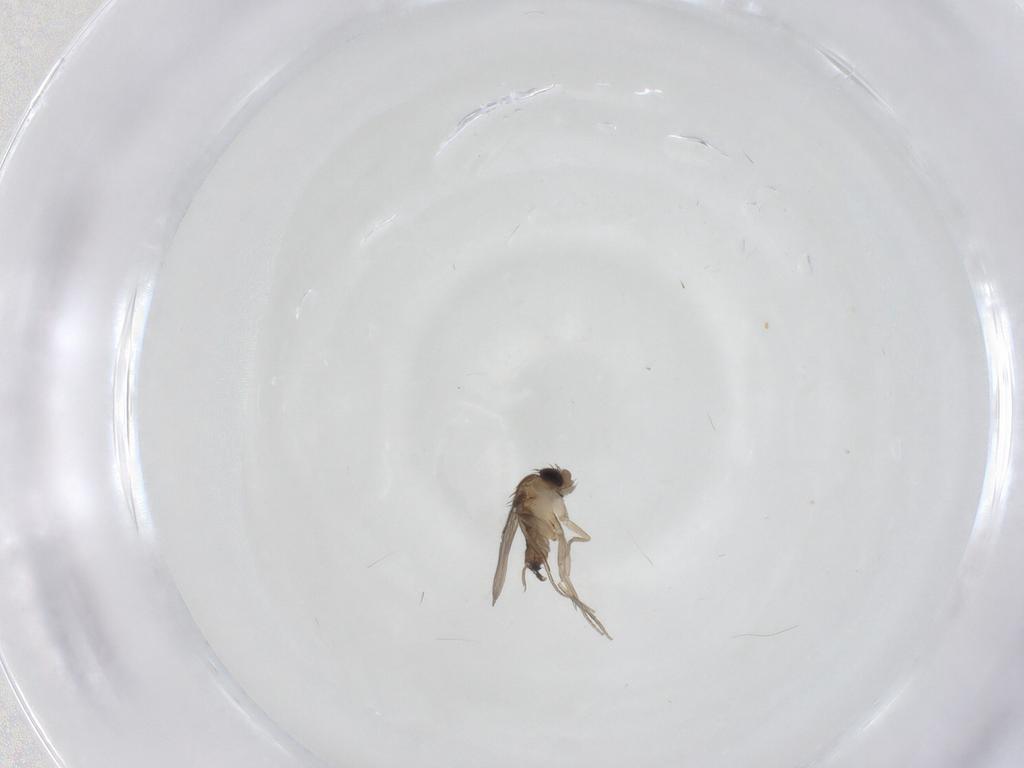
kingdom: Animalia
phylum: Arthropoda
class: Insecta
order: Diptera
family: Phoridae
